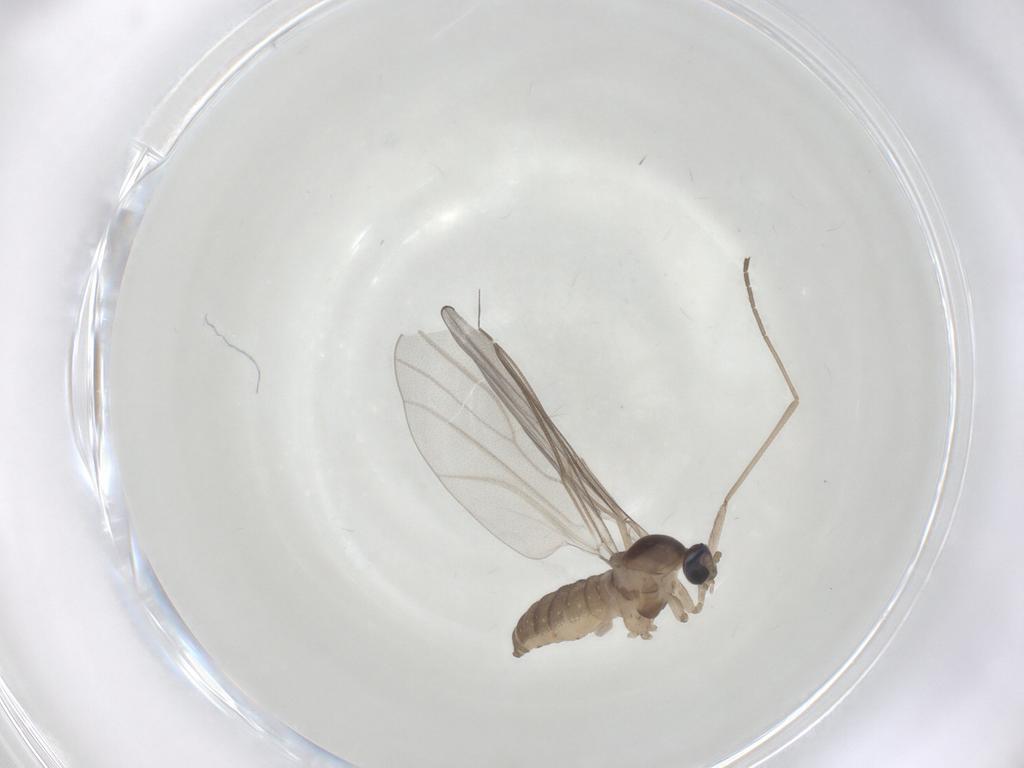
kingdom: Animalia
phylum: Arthropoda
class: Insecta
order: Diptera
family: Cecidomyiidae
